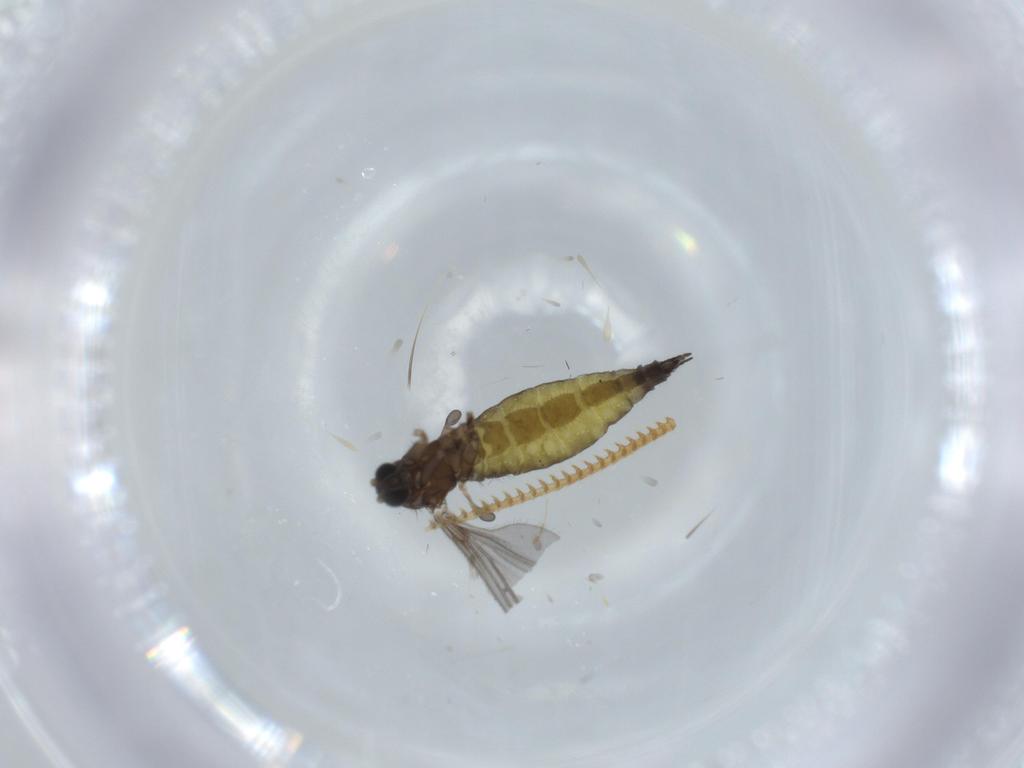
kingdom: Animalia
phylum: Arthropoda
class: Insecta
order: Diptera
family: Sciaridae
